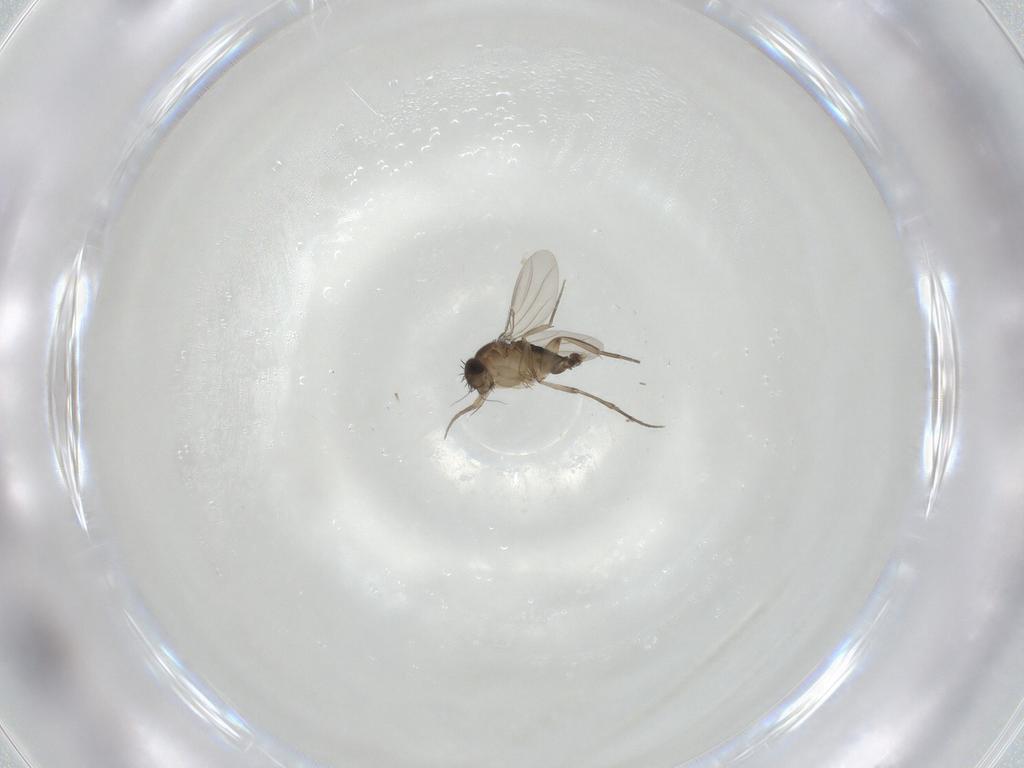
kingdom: Animalia
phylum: Arthropoda
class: Insecta
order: Diptera
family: Phoridae
